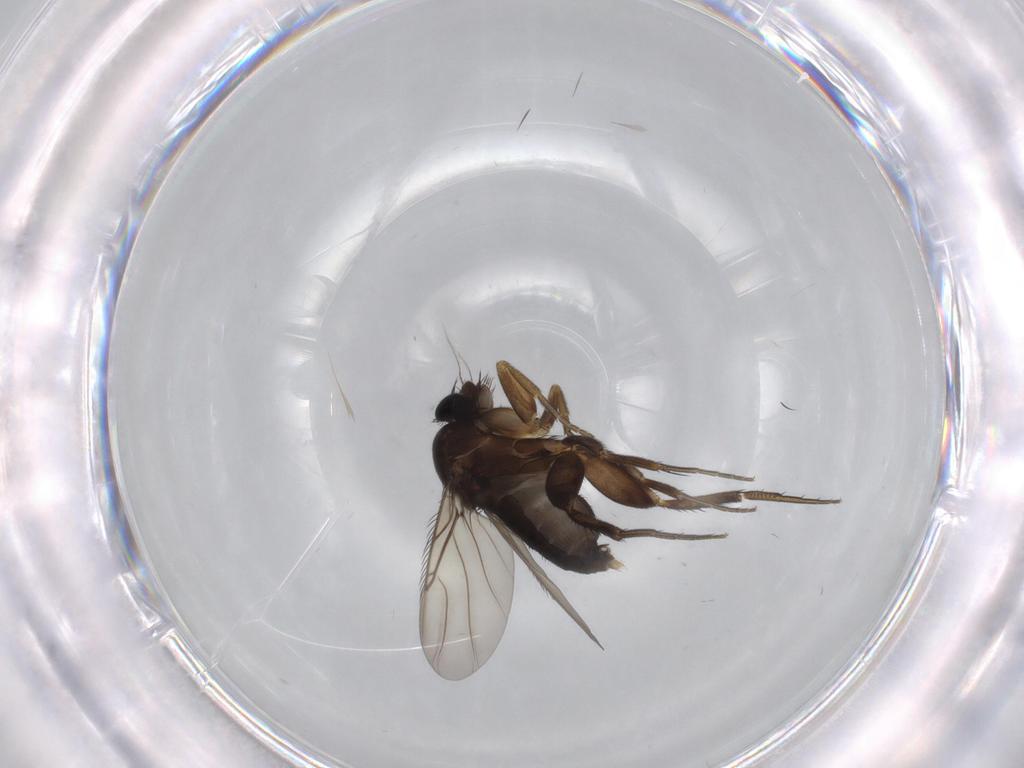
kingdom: Animalia
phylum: Arthropoda
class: Insecta
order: Diptera
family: Phoridae
